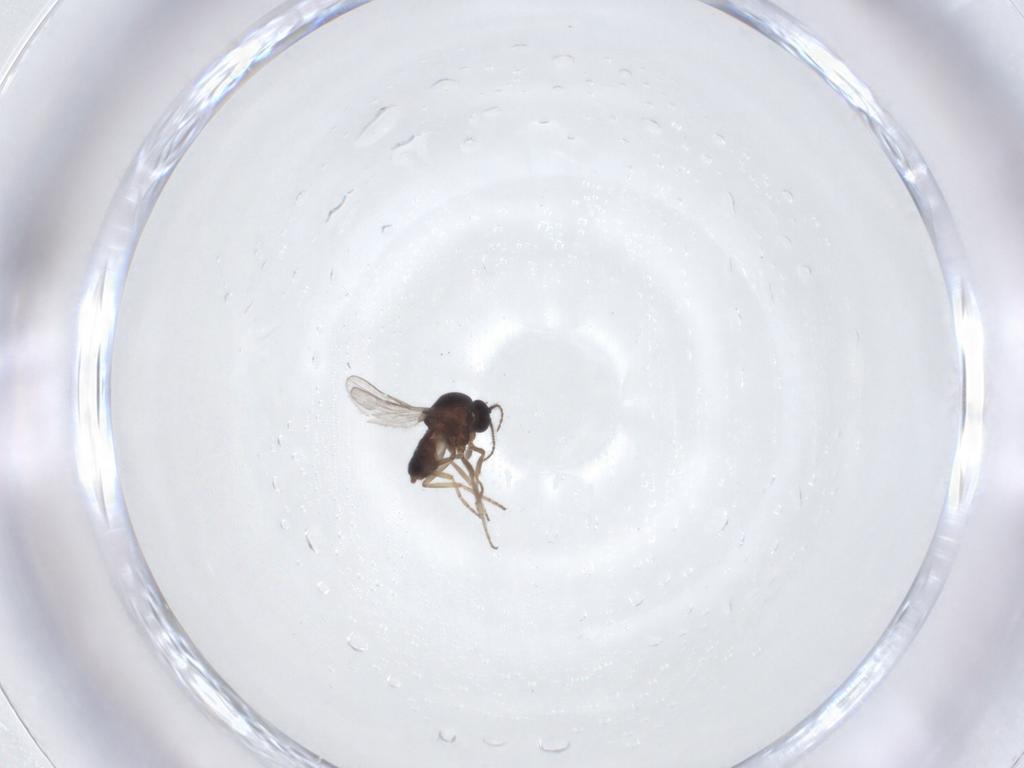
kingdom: Animalia
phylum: Arthropoda
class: Insecta
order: Diptera
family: Ceratopogonidae
